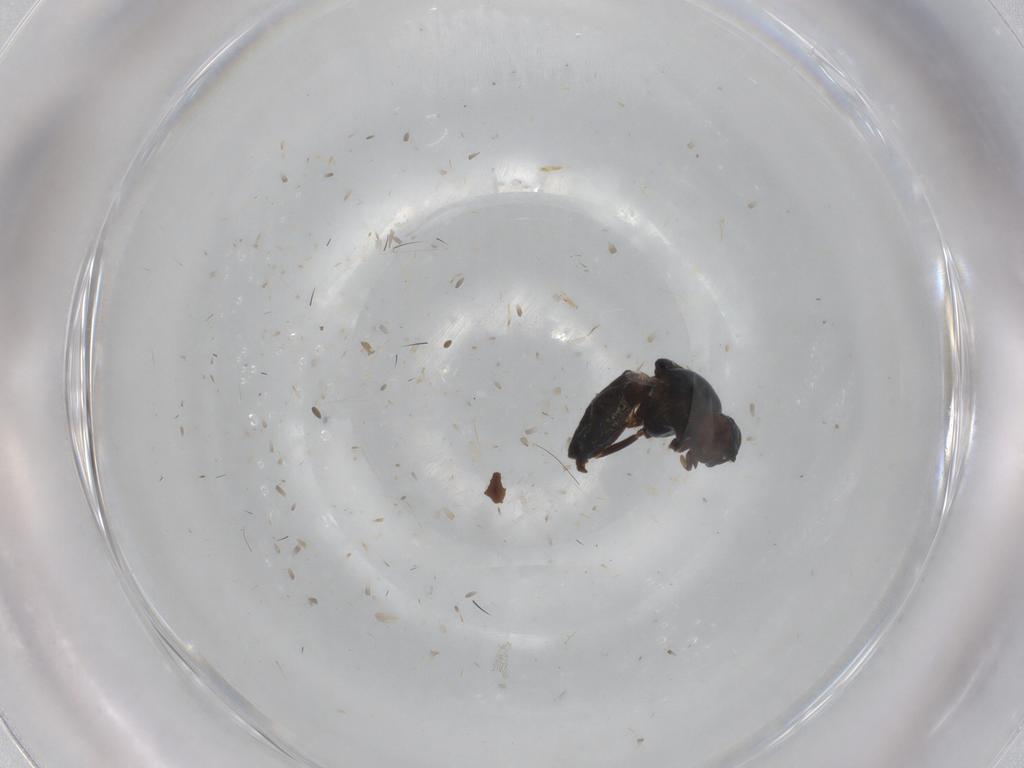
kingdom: Animalia
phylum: Arthropoda
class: Insecta
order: Diptera
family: Chloropidae
